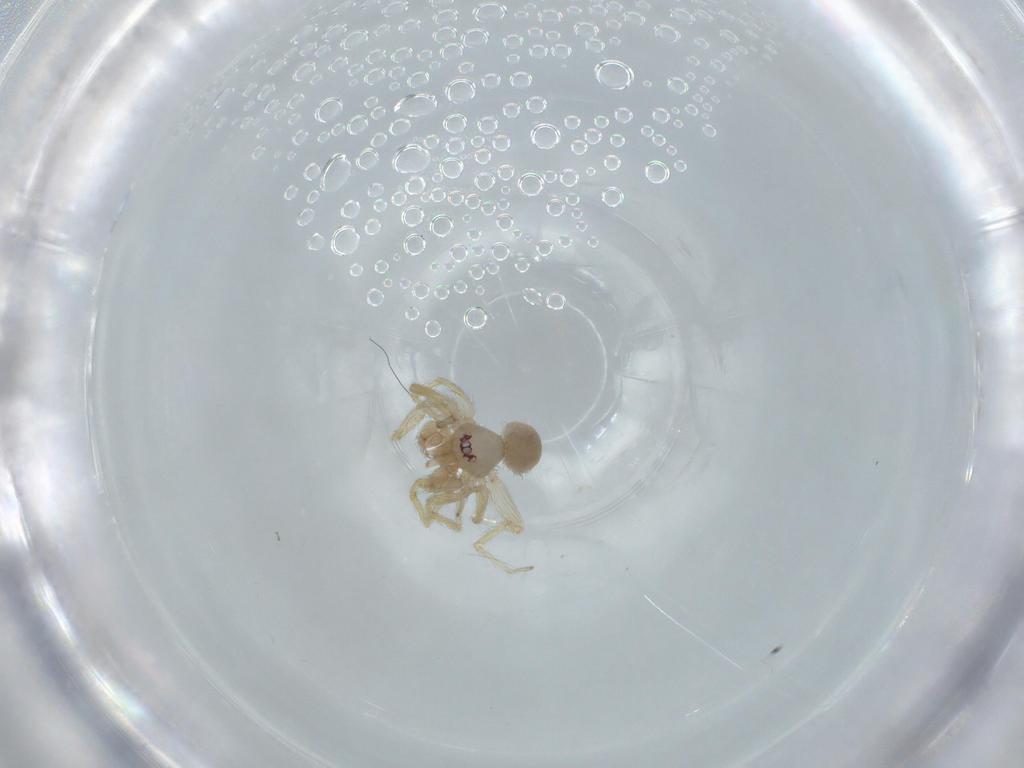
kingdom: Animalia
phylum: Arthropoda
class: Arachnida
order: Araneae
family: Oonopidae
